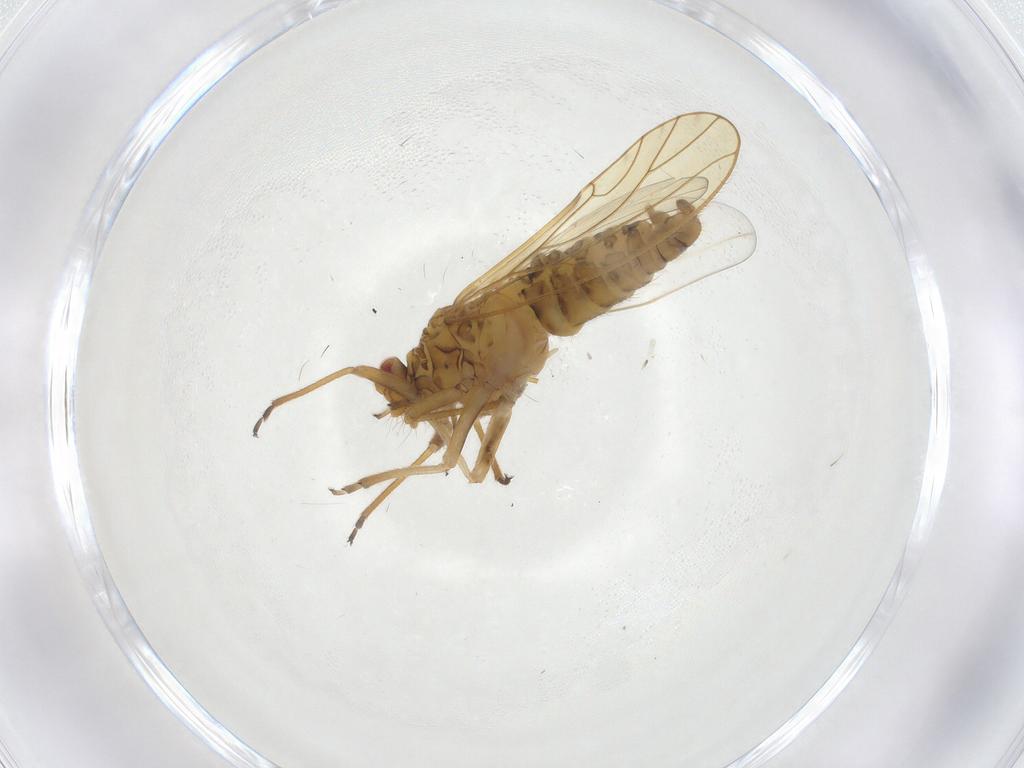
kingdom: Animalia
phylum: Arthropoda
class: Insecta
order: Hemiptera
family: Psyllidae
